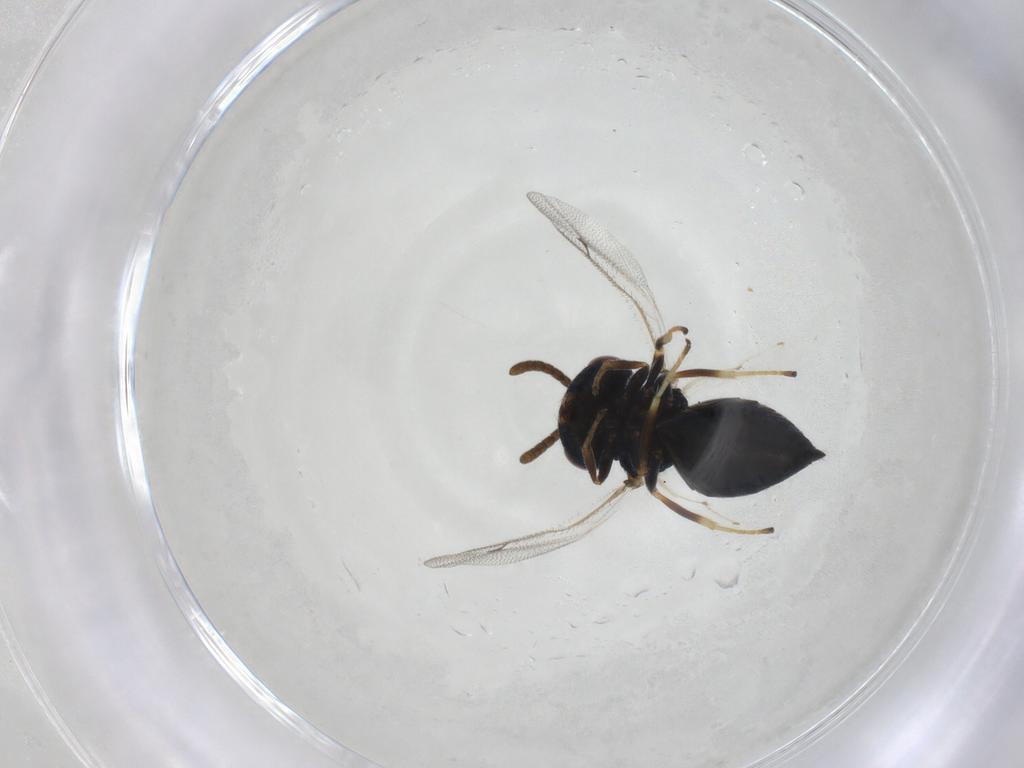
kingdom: Animalia
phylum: Arthropoda
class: Insecta
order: Hymenoptera
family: Pteromalidae
